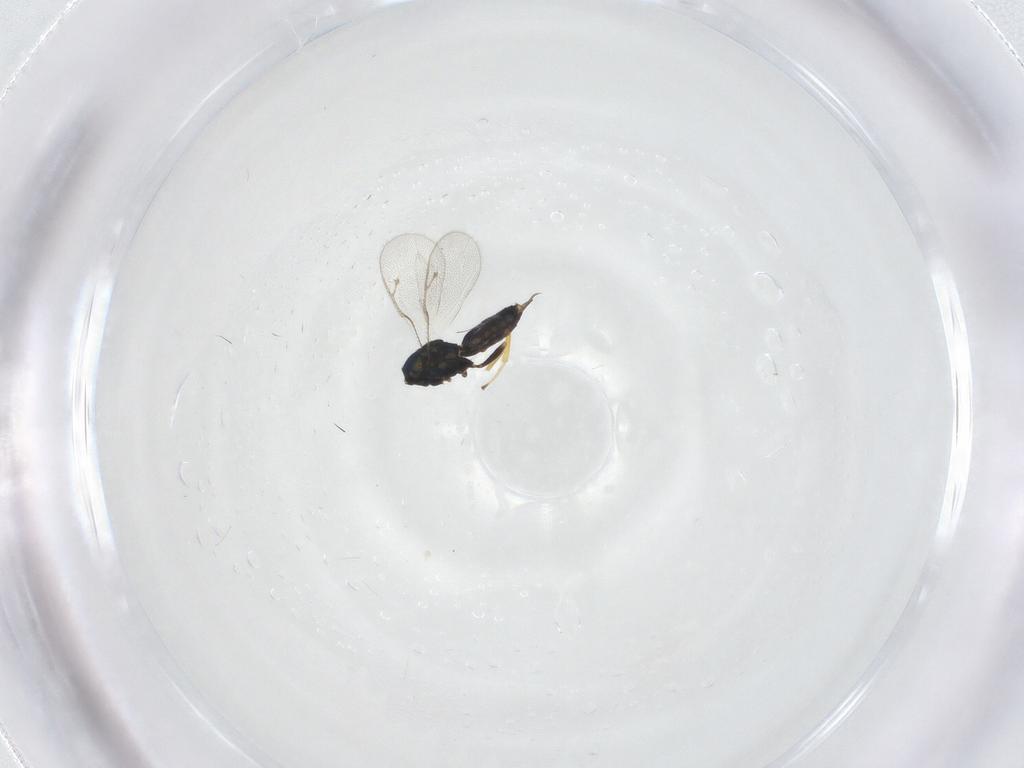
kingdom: Animalia
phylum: Arthropoda
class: Insecta
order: Hymenoptera
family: Pteromalidae
